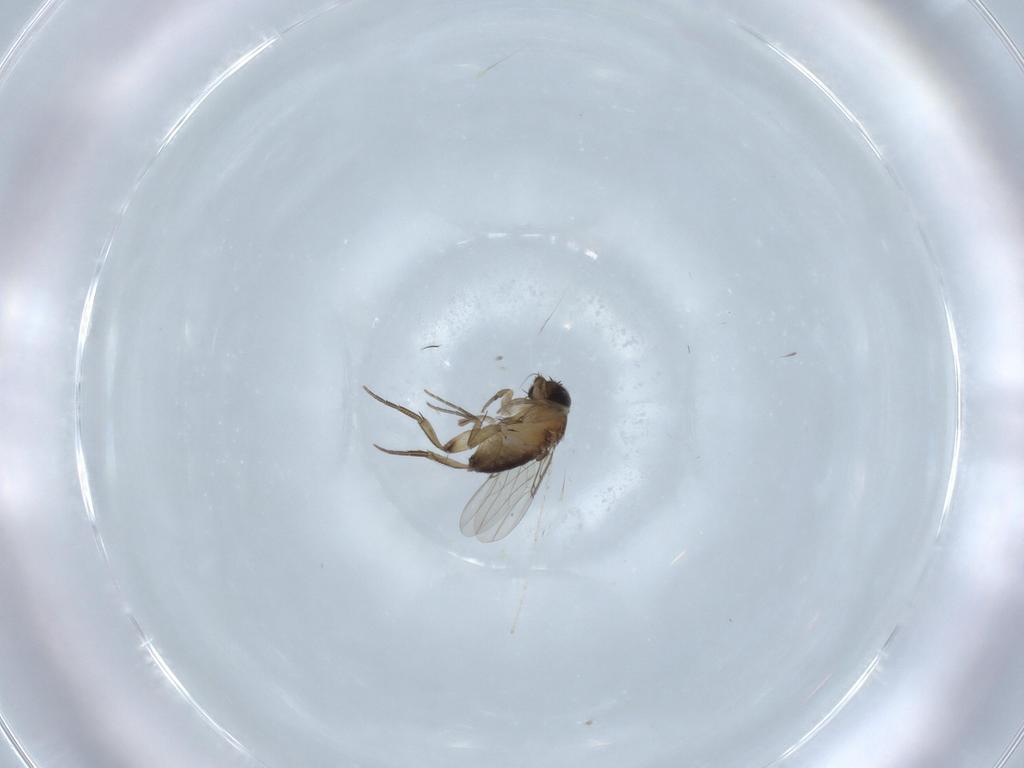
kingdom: Animalia
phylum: Arthropoda
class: Insecta
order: Diptera
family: Phoridae
